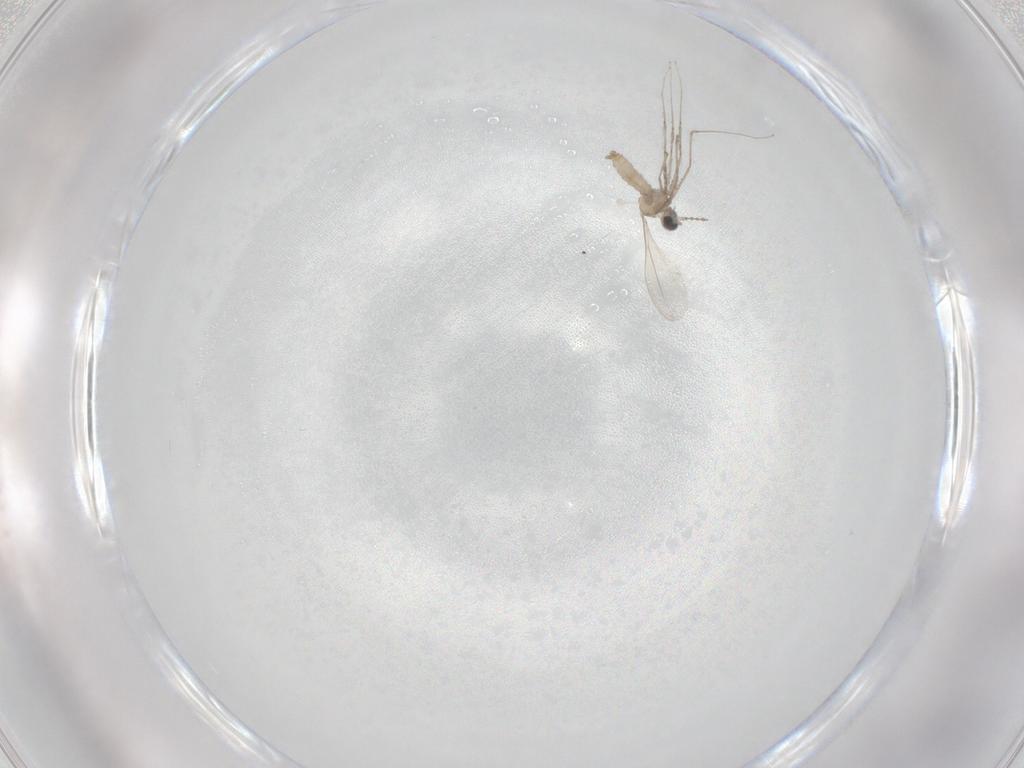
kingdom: Animalia
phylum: Arthropoda
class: Insecta
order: Diptera
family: Cecidomyiidae
